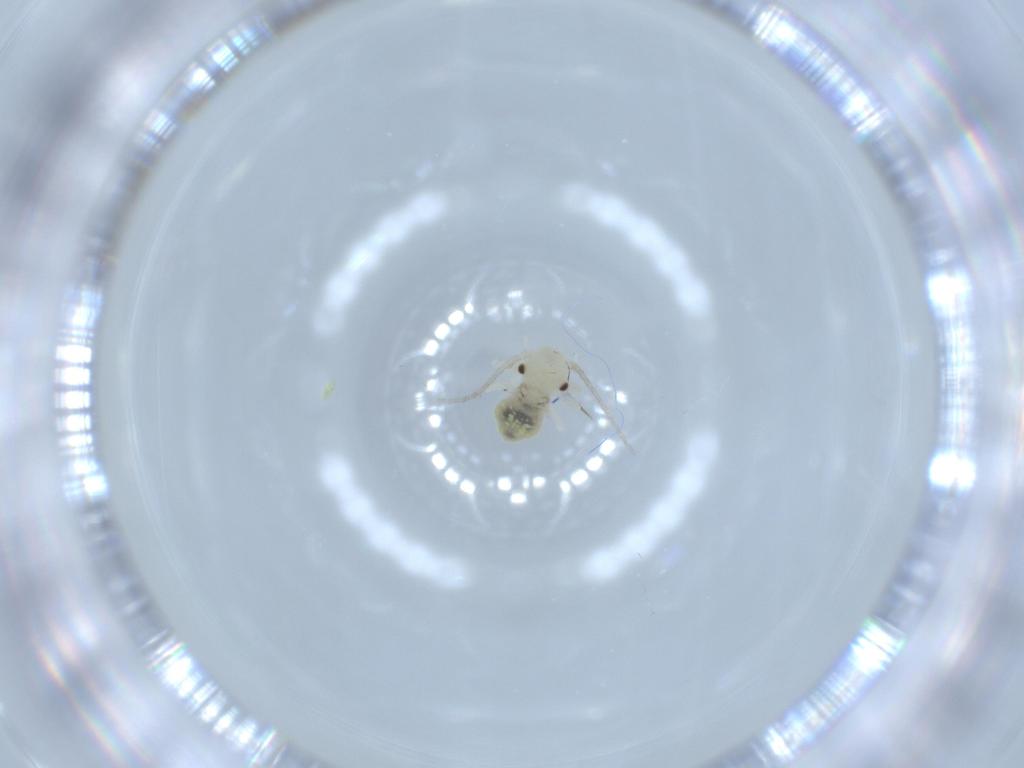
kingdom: Animalia
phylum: Arthropoda
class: Insecta
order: Psocodea
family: Caeciliusidae
